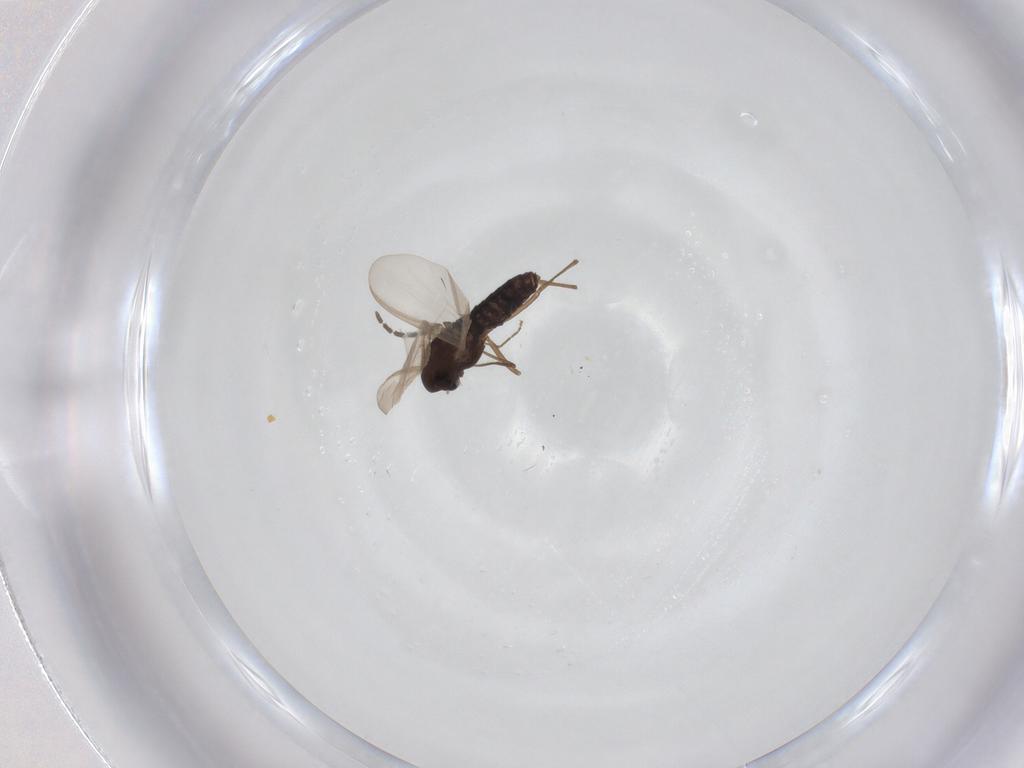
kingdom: Animalia
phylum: Arthropoda
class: Insecta
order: Diptera
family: Chironomidae
